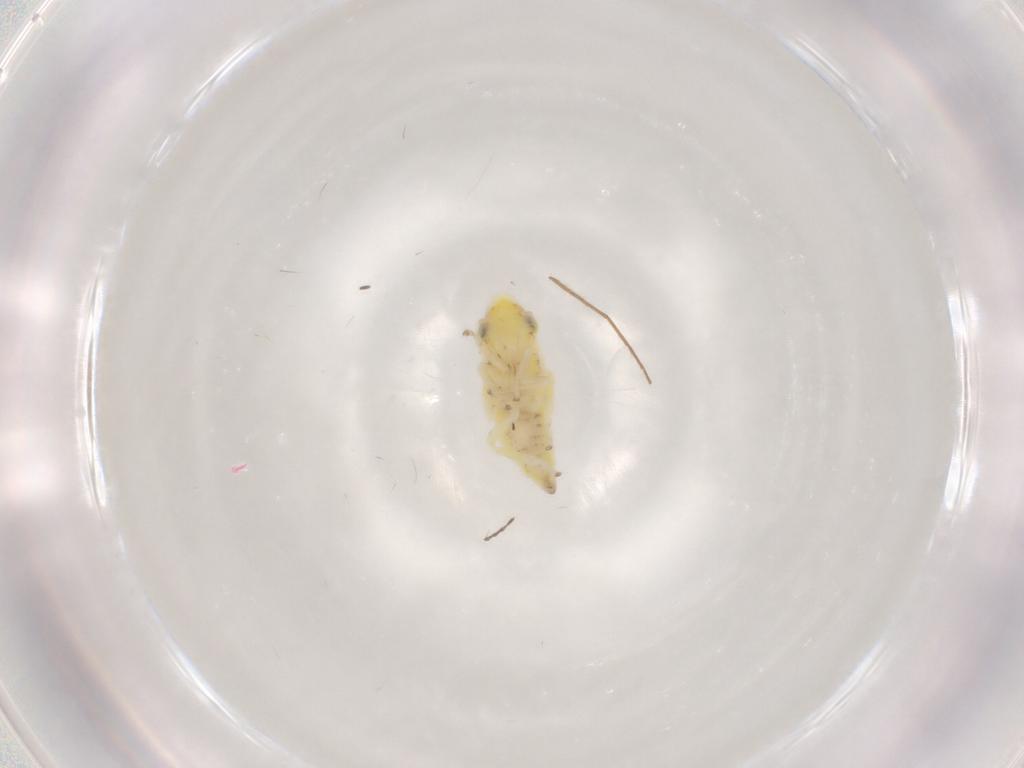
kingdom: Animalia
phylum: Arthropoda
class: Insecta
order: Hemiptera
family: Cicadellidae
